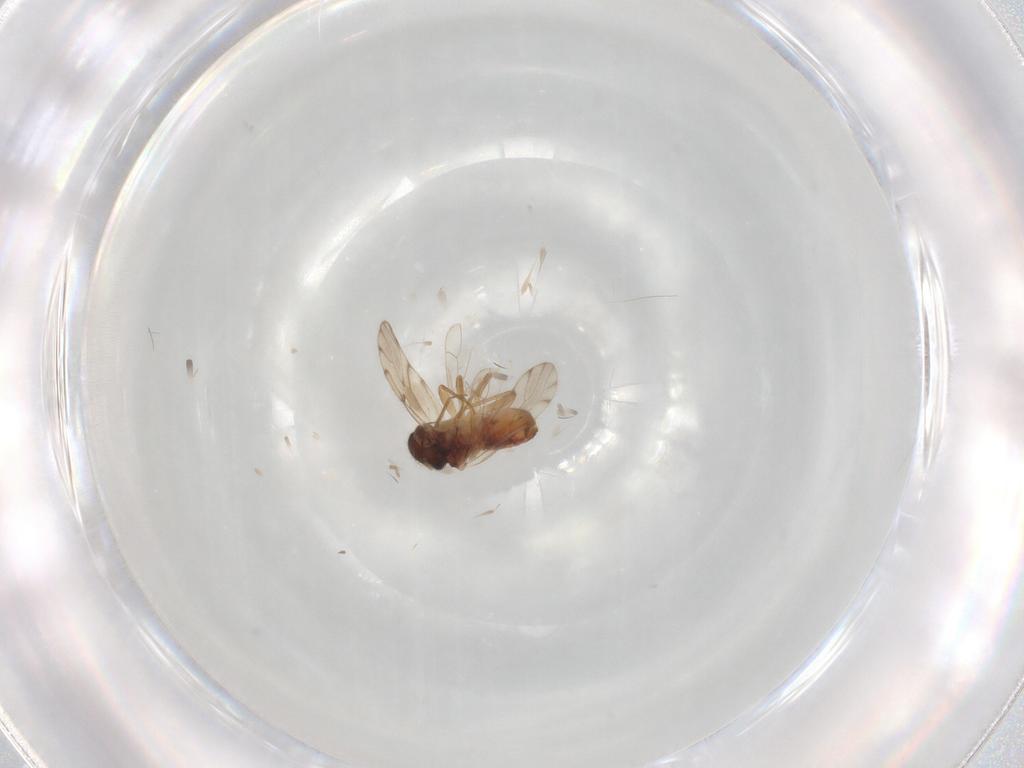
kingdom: Animalia
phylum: Arthropoda
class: Insecta
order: Psocodea
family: Peripsocidae
